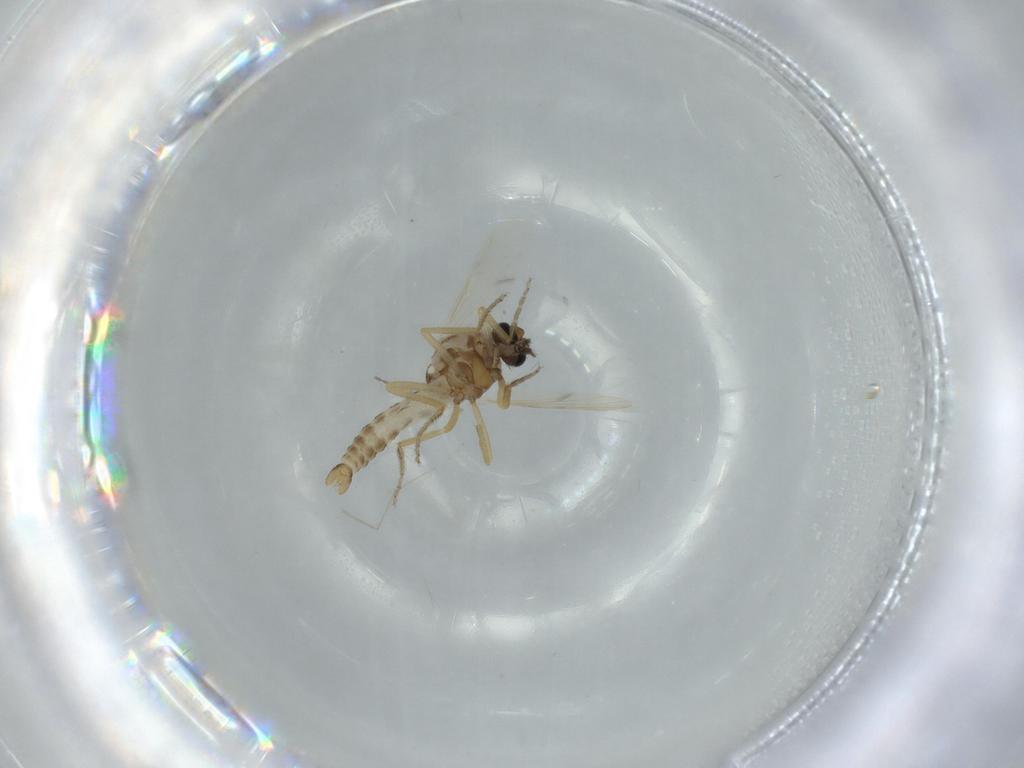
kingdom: Animalia
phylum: Arthropoda
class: Insecta
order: Diptera
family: Cecidomyiidae
